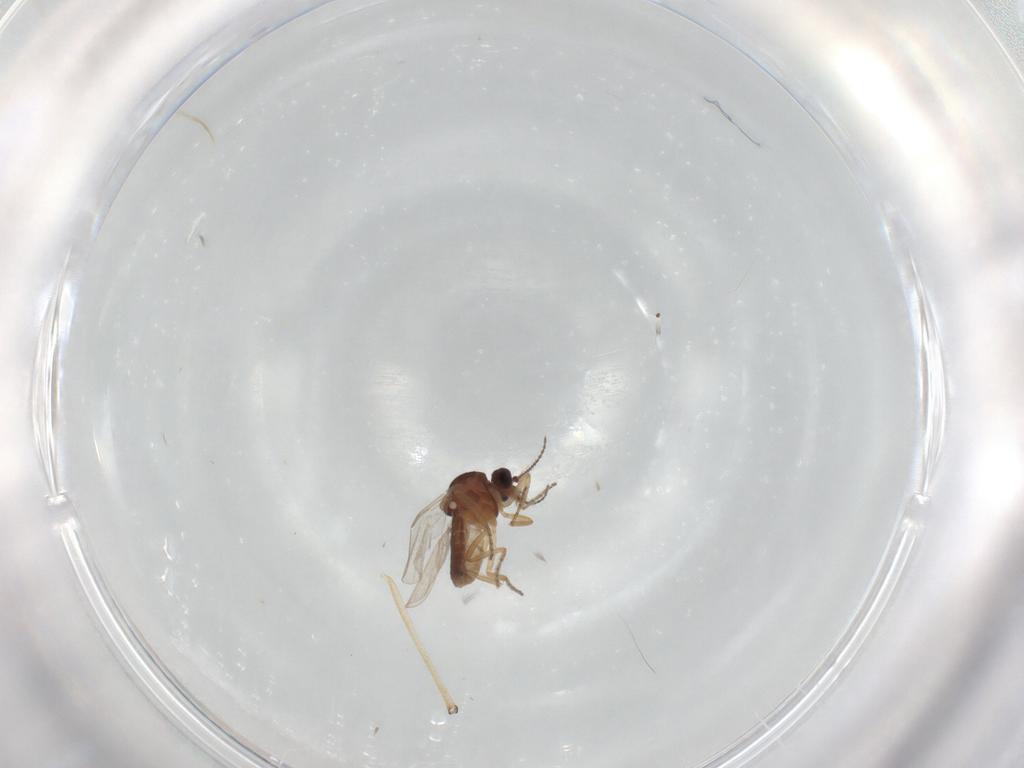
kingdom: Animalia
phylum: Arthropoda
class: Insecta
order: Diptera
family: Ceratopogonidae
